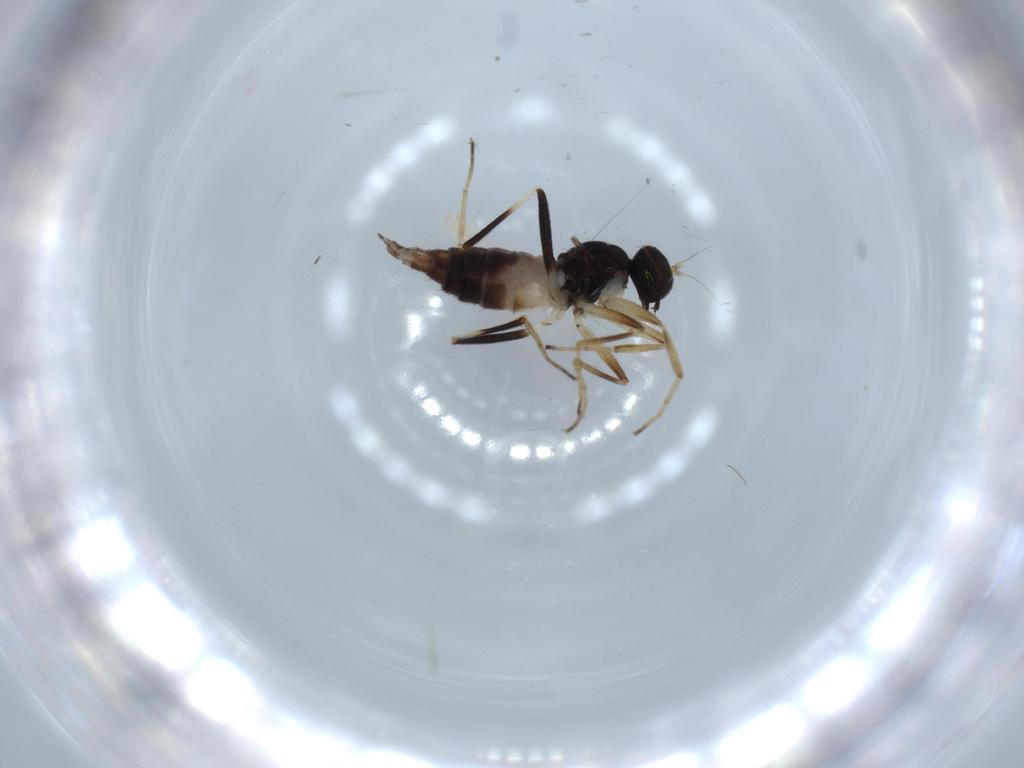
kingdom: Animalia
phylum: Arthropoda
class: Insecta
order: Diptera
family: Hybotidae
